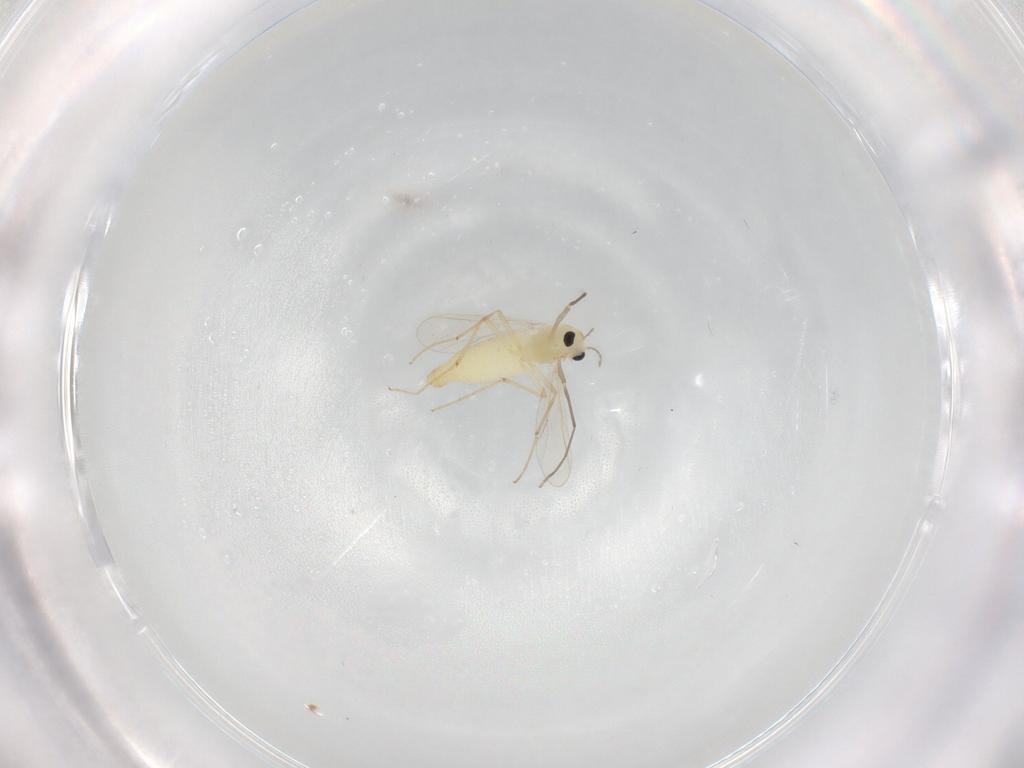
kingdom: Animalia
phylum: Arthropoda
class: Insecta
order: Diptera
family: Chironomidae
